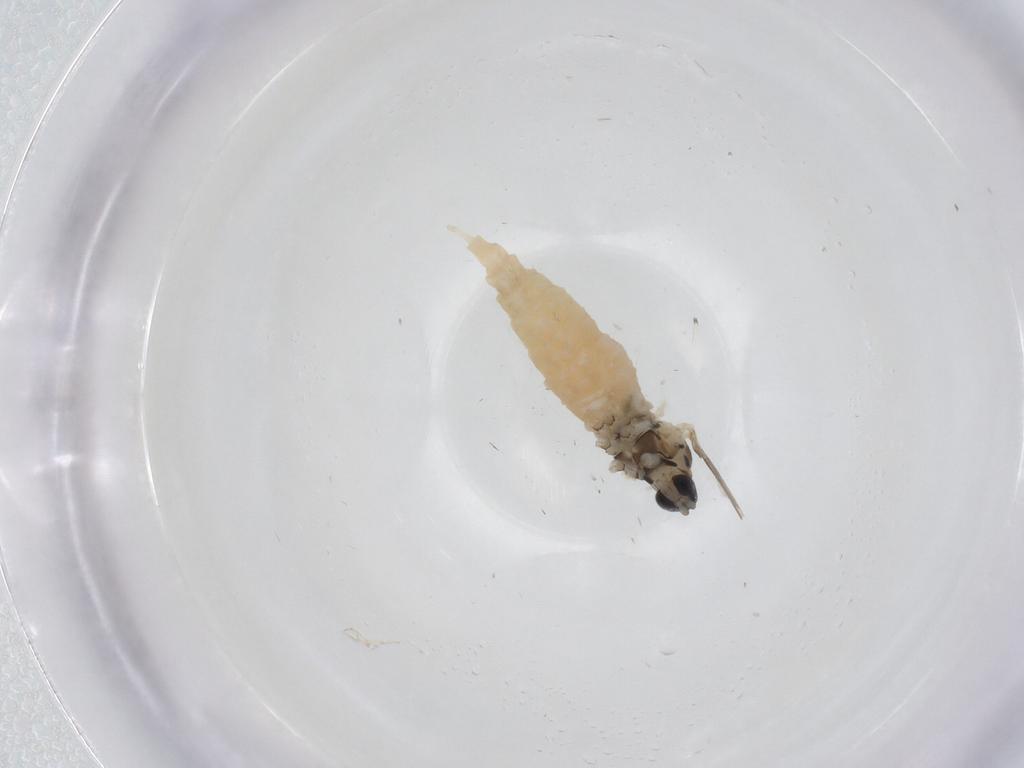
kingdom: Animalia
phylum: Arthropoda
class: Insecta
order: Diptera
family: Cecidomyiidae
